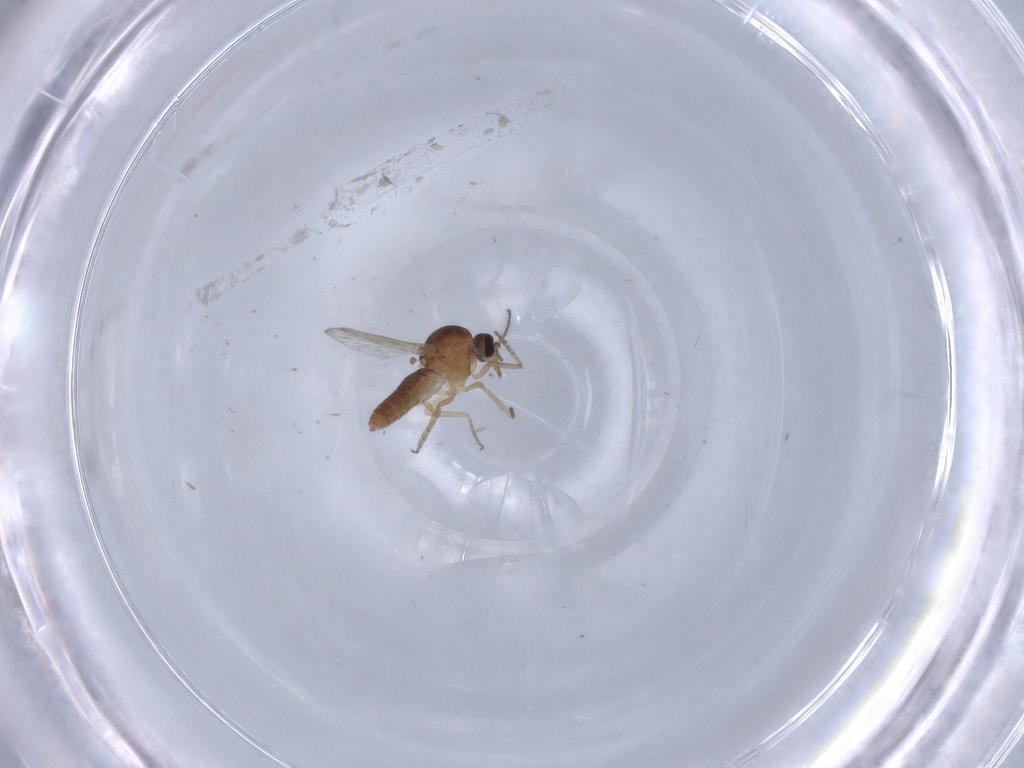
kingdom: Animalia
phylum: Arthropoda
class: Insecta
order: Diptera
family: Ceratopogonidae
